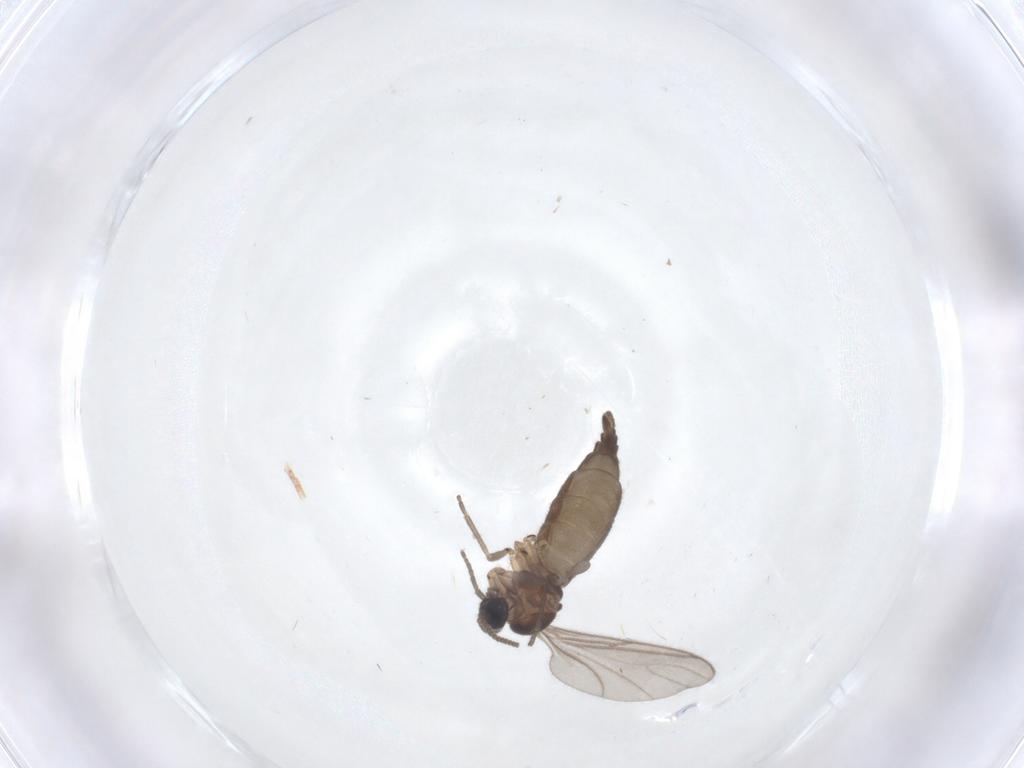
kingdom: Animalia
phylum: Arthropoda
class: Insecta
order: Diptera
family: Sciaridae
